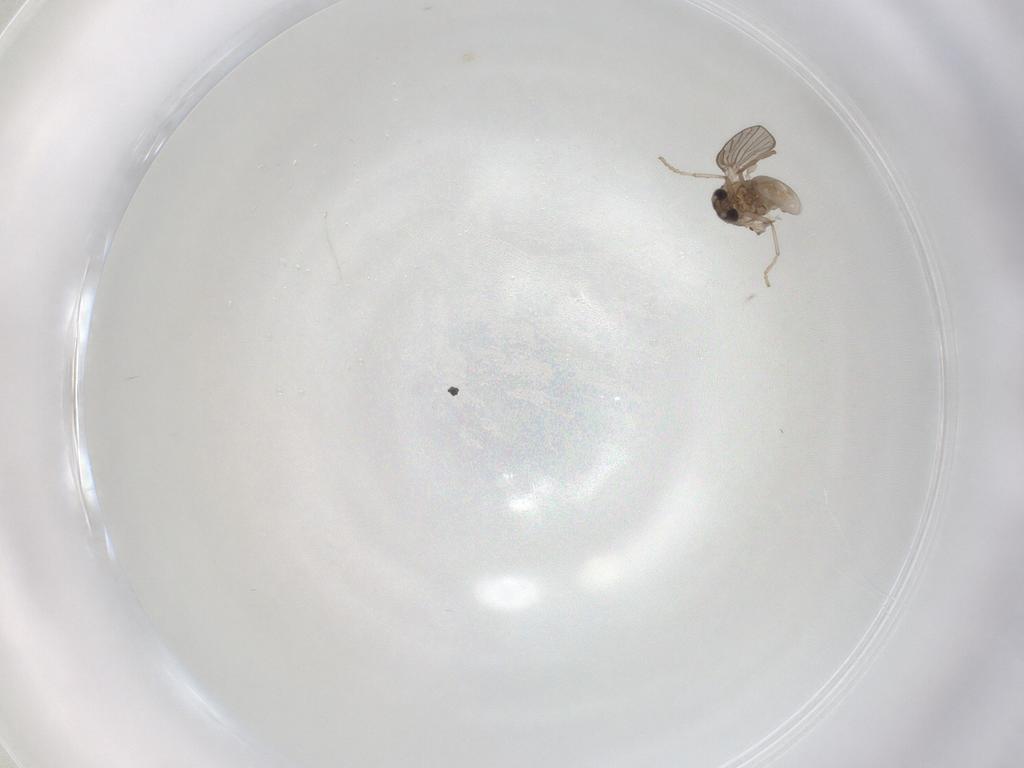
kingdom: Animalia
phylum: Arthropoda
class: Insecta
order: Diptera
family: Psychodidae
